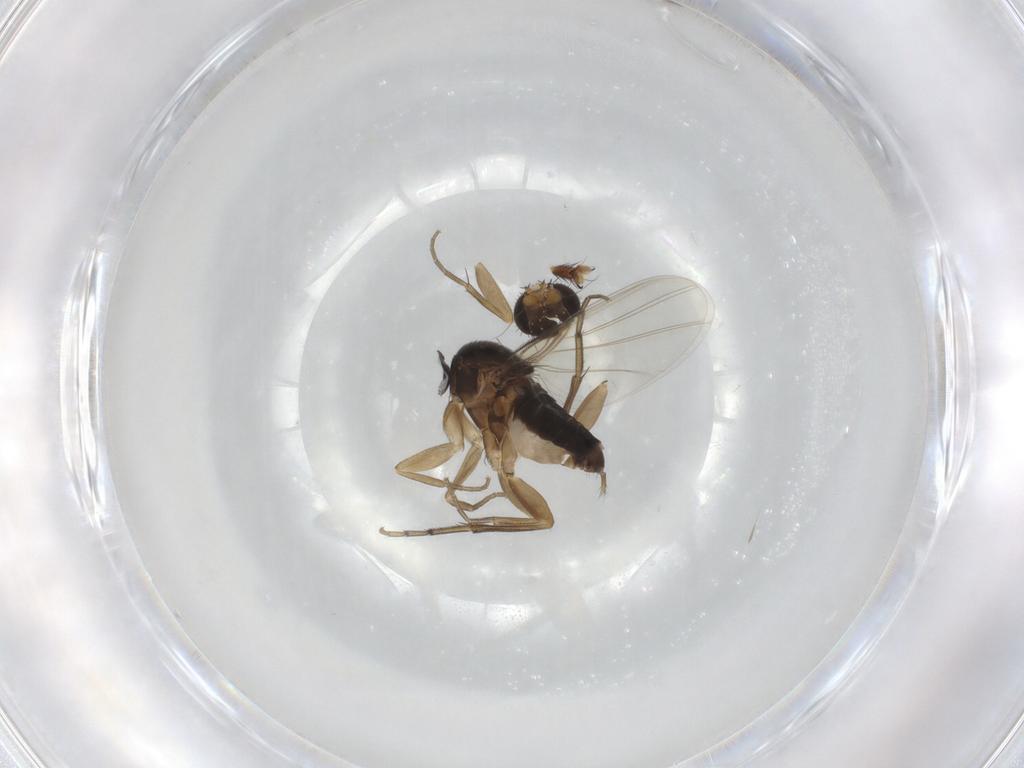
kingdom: Animalia
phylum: Arthropoda
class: Insecta
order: Diptera
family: Phoridae
